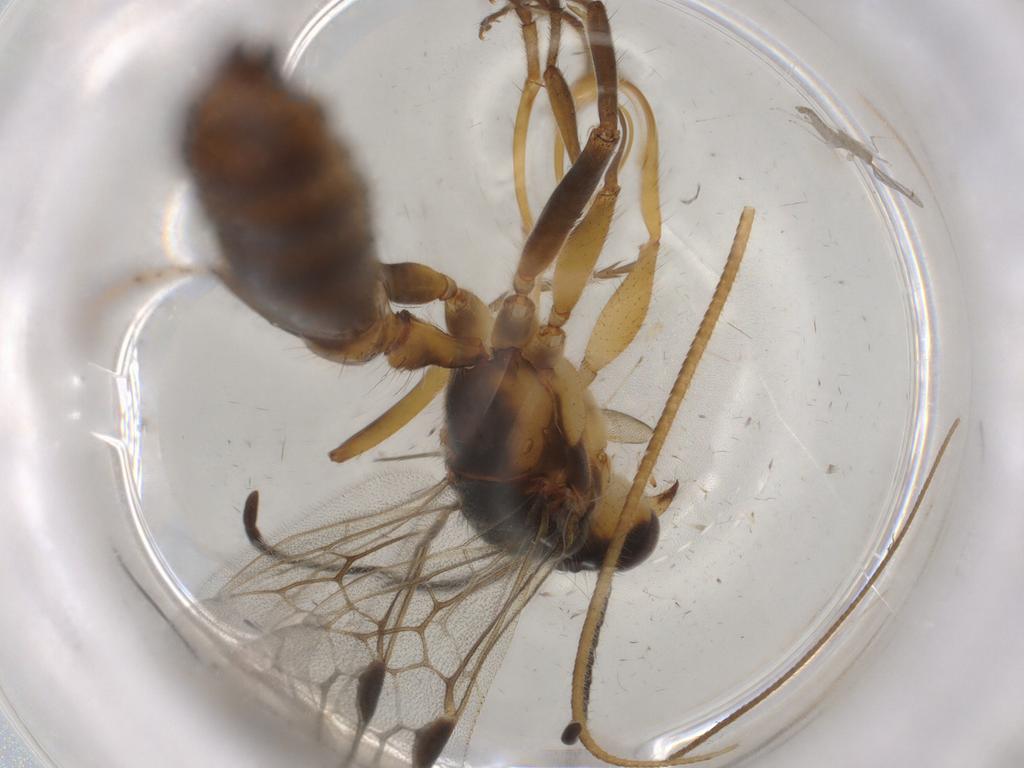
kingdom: Animalia
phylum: Arthropoda
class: Insecta
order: Hymenoptera
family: Formicidae
